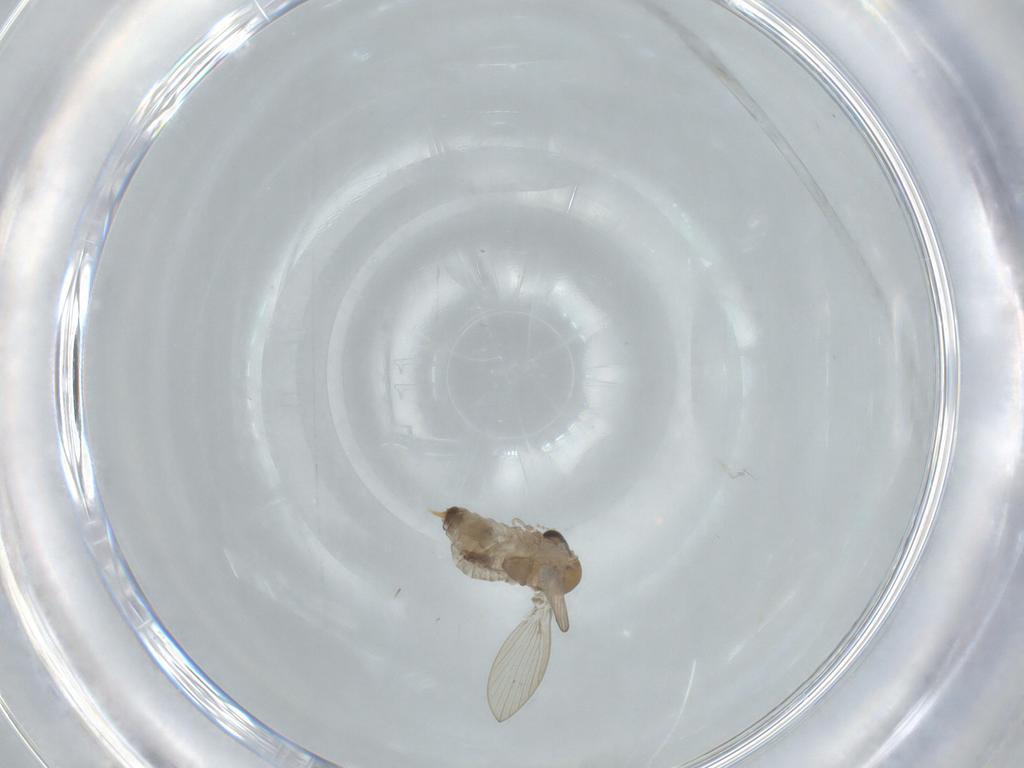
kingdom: Animalia
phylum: Arthropoda
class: Insecta
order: Diptera
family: Psychodidae
